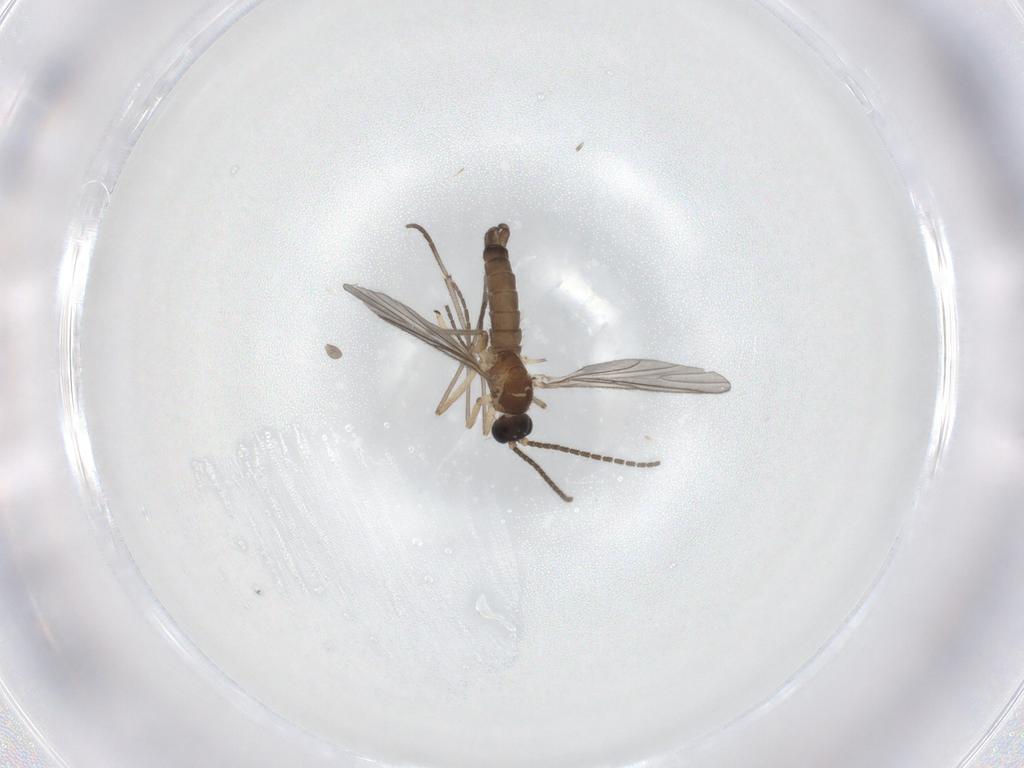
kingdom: Animalia
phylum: Arthropoda
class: Insecta
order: Diptera
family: Sciaridae
